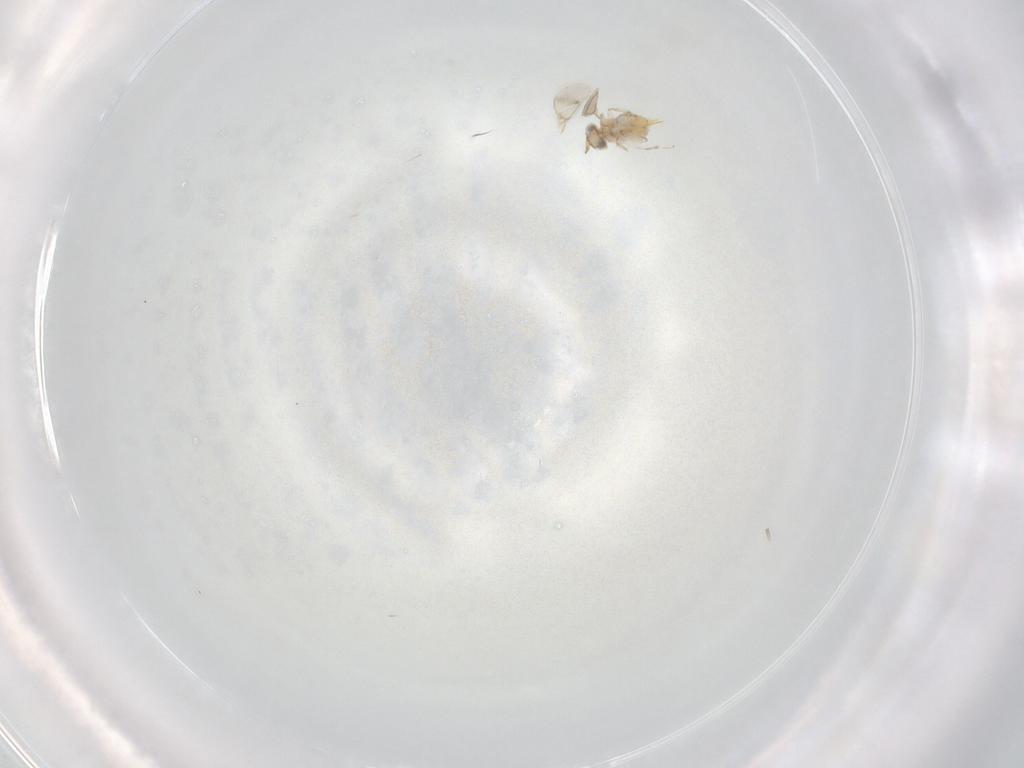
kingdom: Animalia
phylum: Arthropoda
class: Insecta
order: Hymenoptera
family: Aphelinidae
